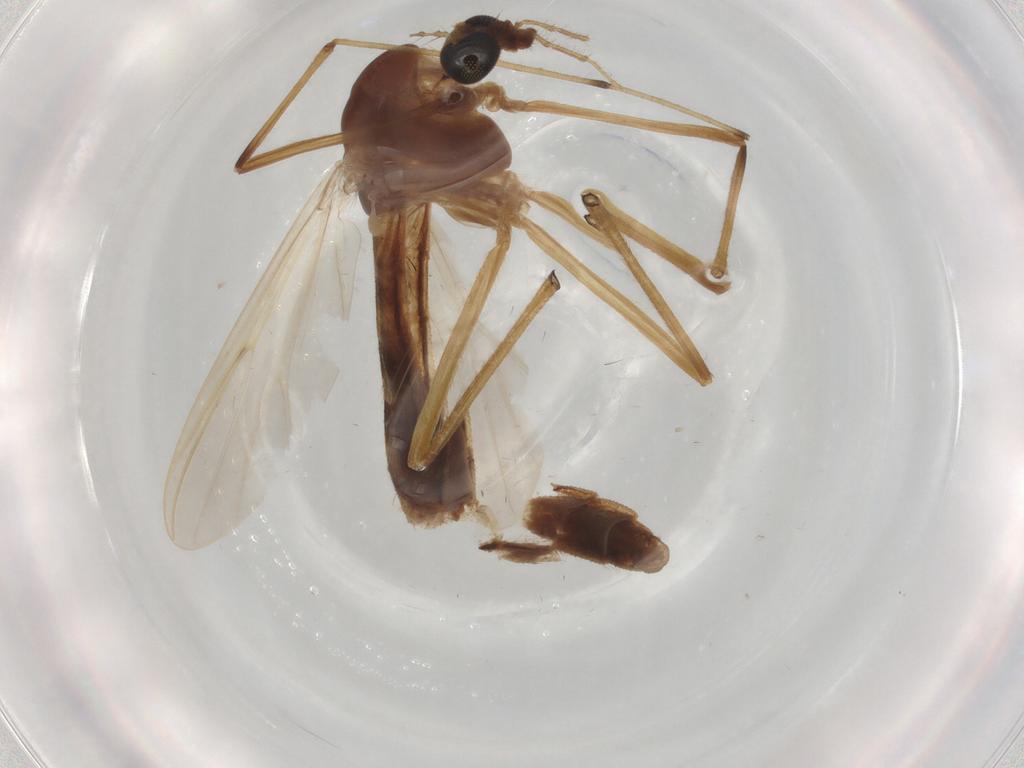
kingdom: Animalia
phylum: Arthropoda
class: Insecta
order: Diptera
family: Hybotidae
